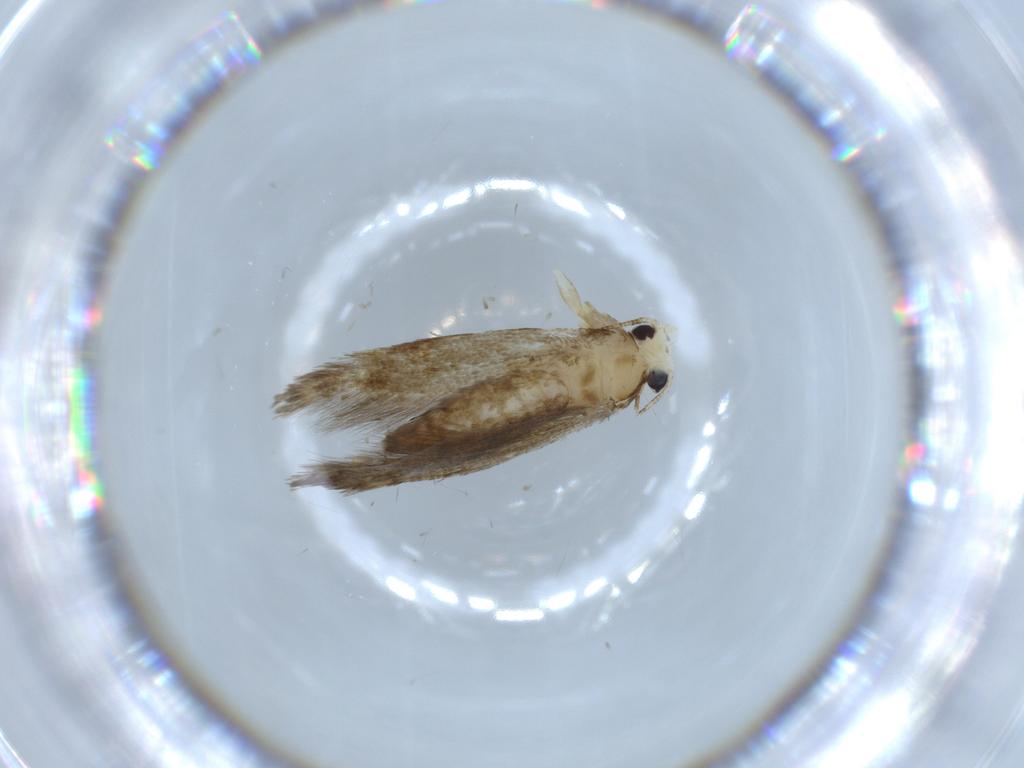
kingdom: Animalia
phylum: Arthropoda
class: Insecta
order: Lepidoptera
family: Tineidae
